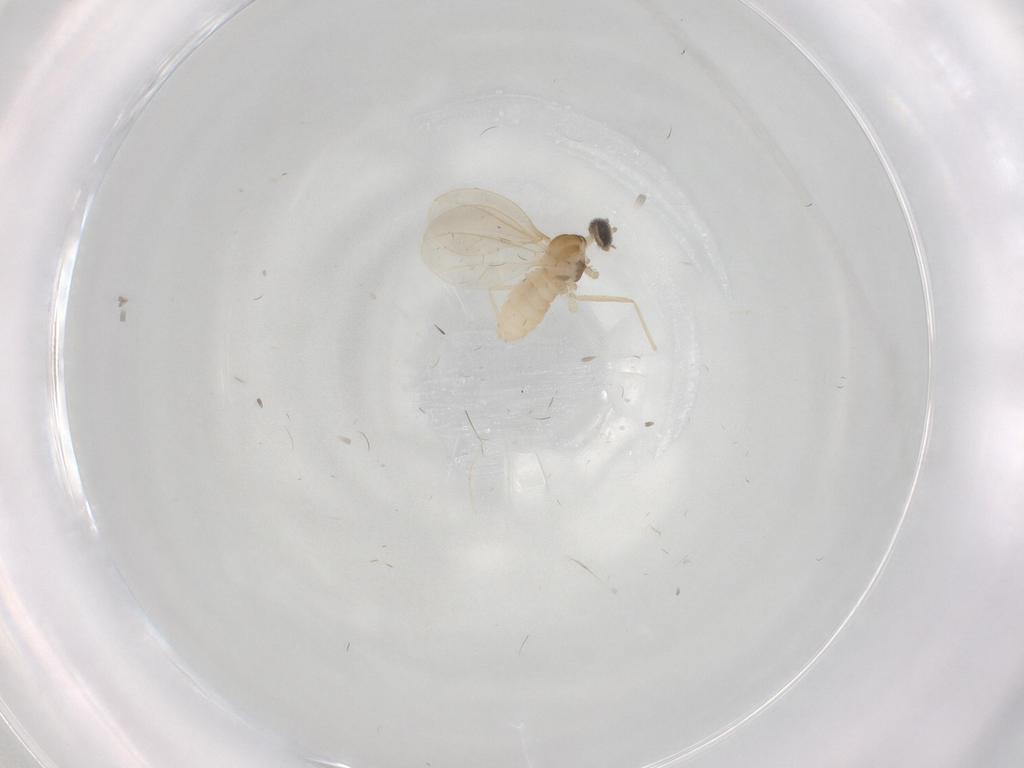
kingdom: Animalia
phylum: Arthropoda
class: Insecta
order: Diptera
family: Cecidomyiidae
